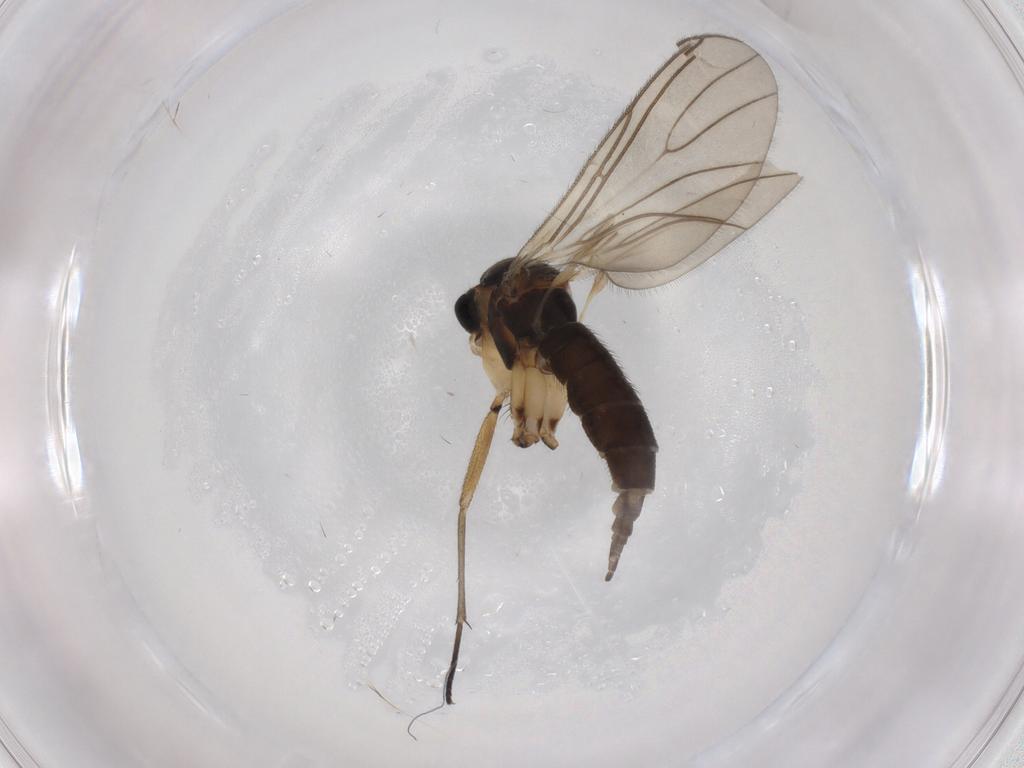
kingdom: Animalia
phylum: Arthropoda
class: Insecta
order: Diptera
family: Sciaridae
